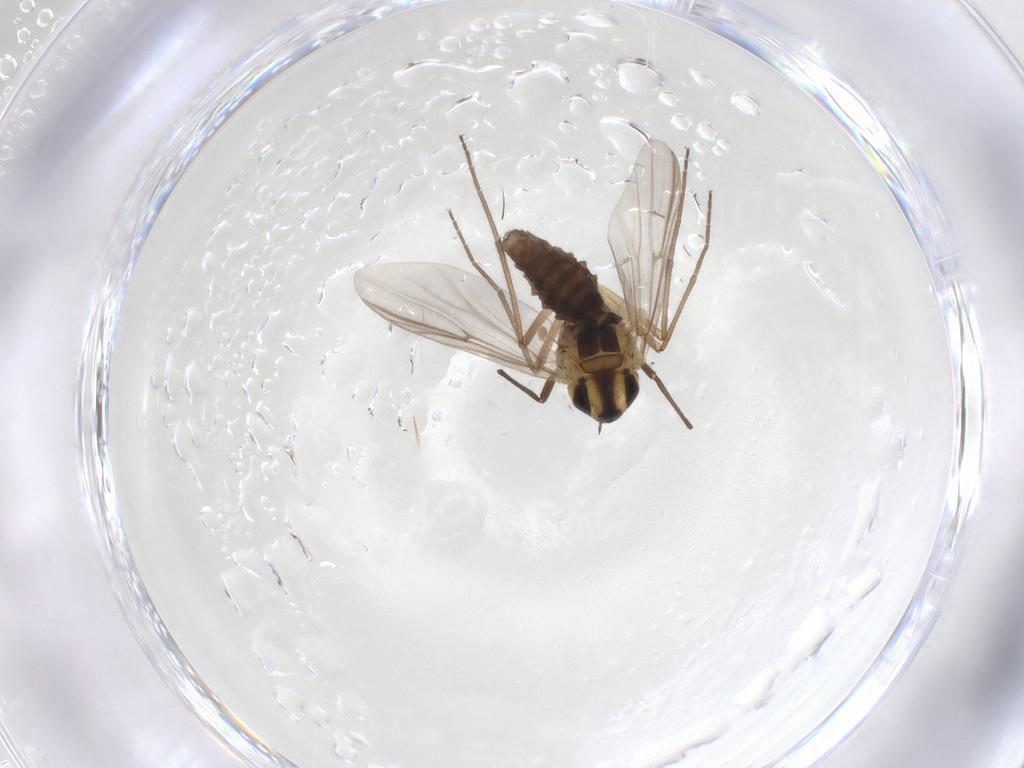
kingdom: Animalia
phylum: Arthropoda
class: Insecta
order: Diptera
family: Chironomidae
